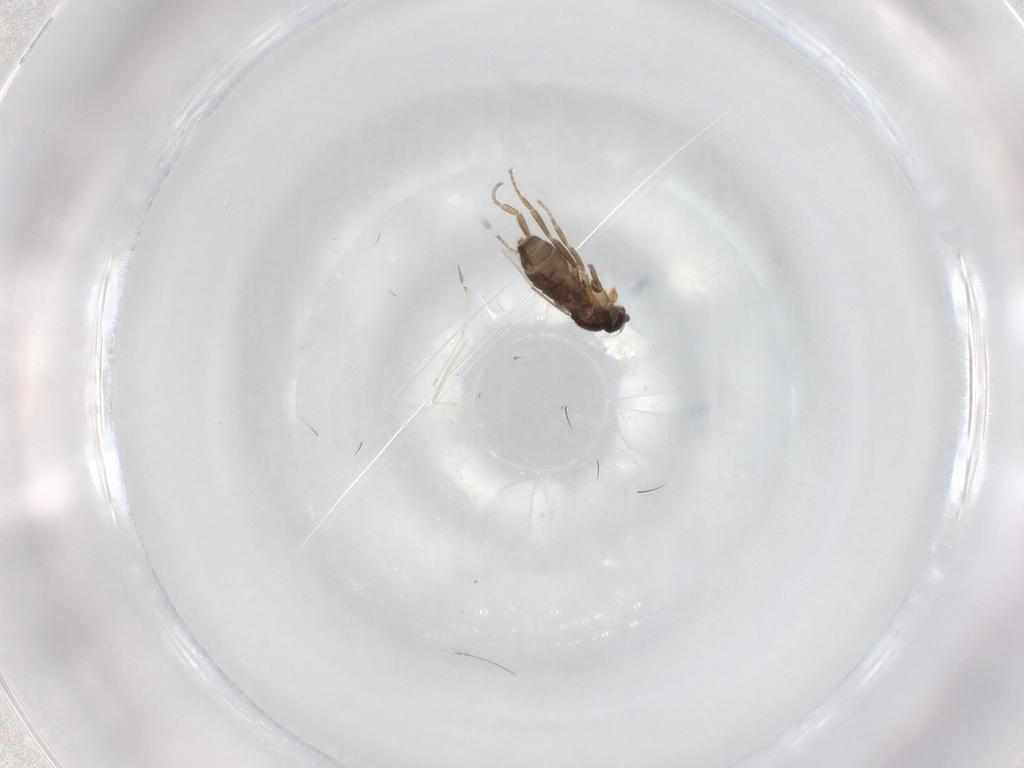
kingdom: Animalia
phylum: Arthropoda
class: Insecta
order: Diptera
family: Phoridae
